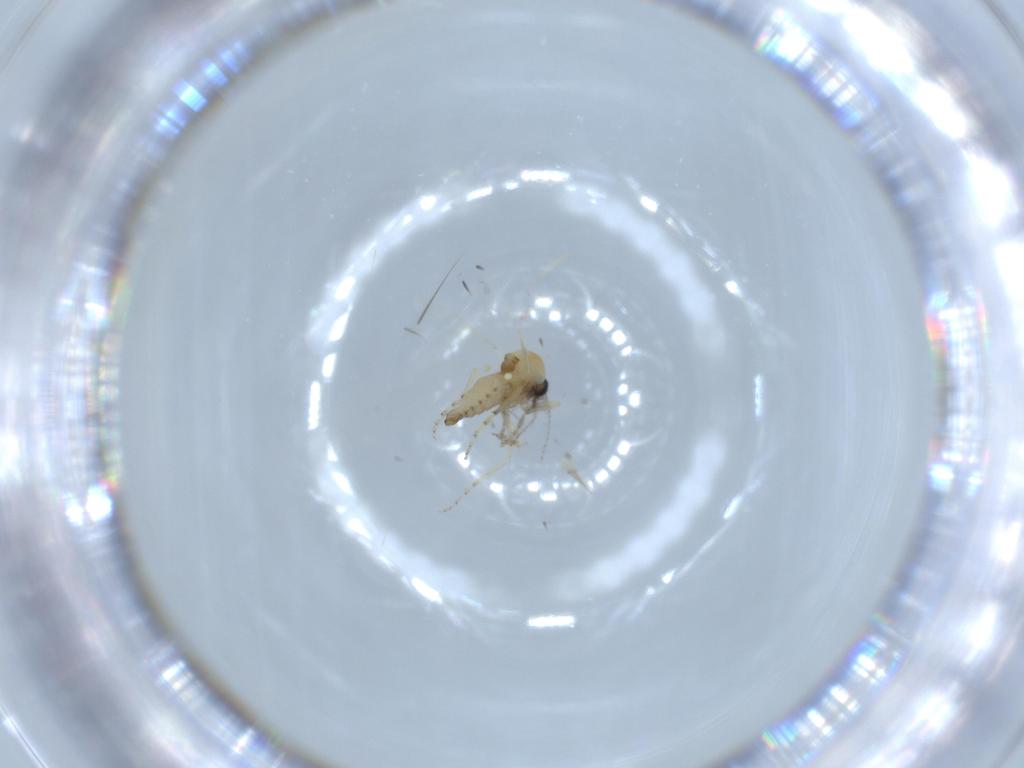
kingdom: Animalia
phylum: Arthropoda
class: Insecta
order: Diptera
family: Ceratopogonidae
